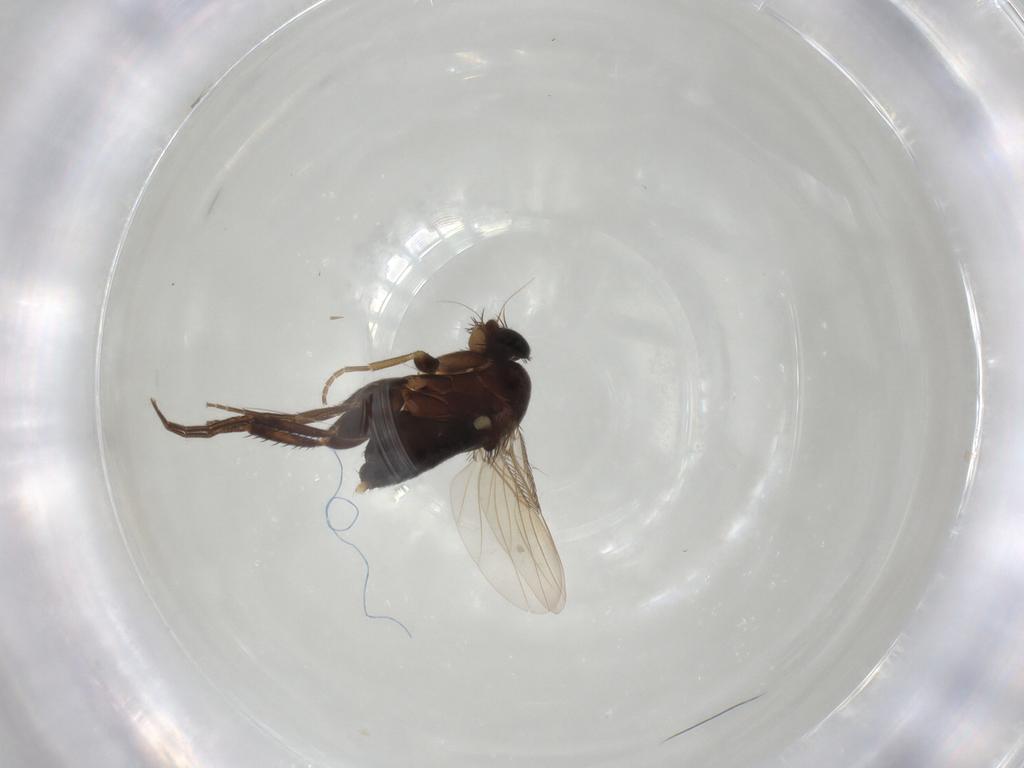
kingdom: Animalia
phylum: Arthropoda
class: Insecta
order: Diptera
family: Phoridae
